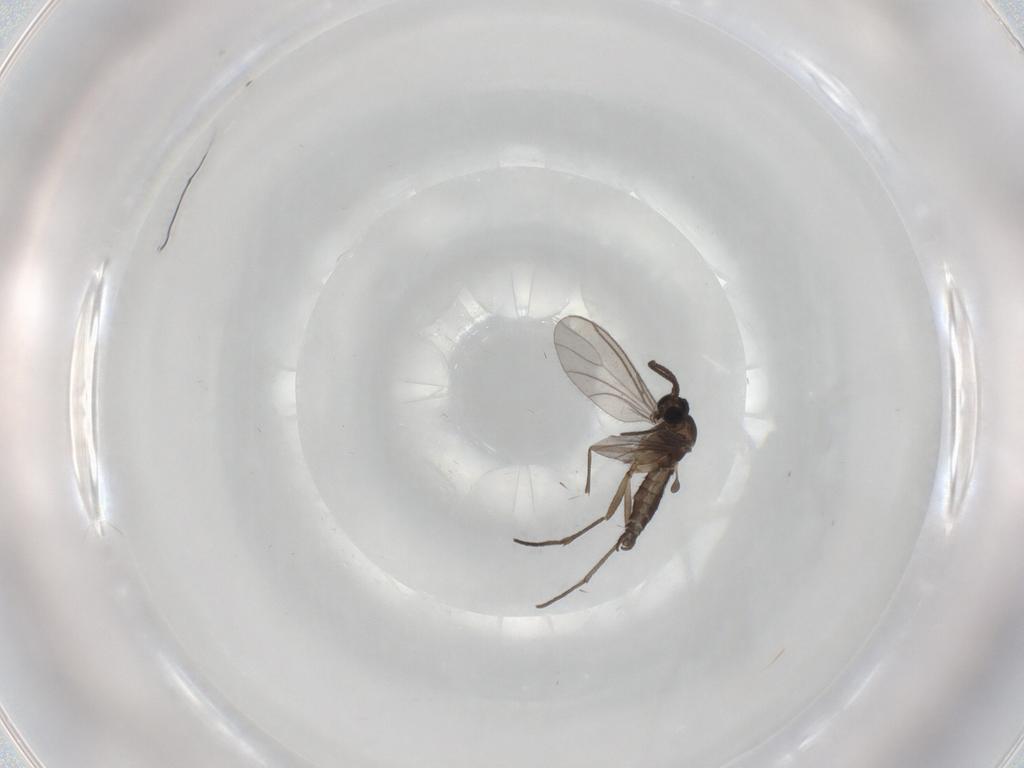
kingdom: Animalia
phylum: Arthropoda
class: Insecta
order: Diptera
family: Sciaridae
